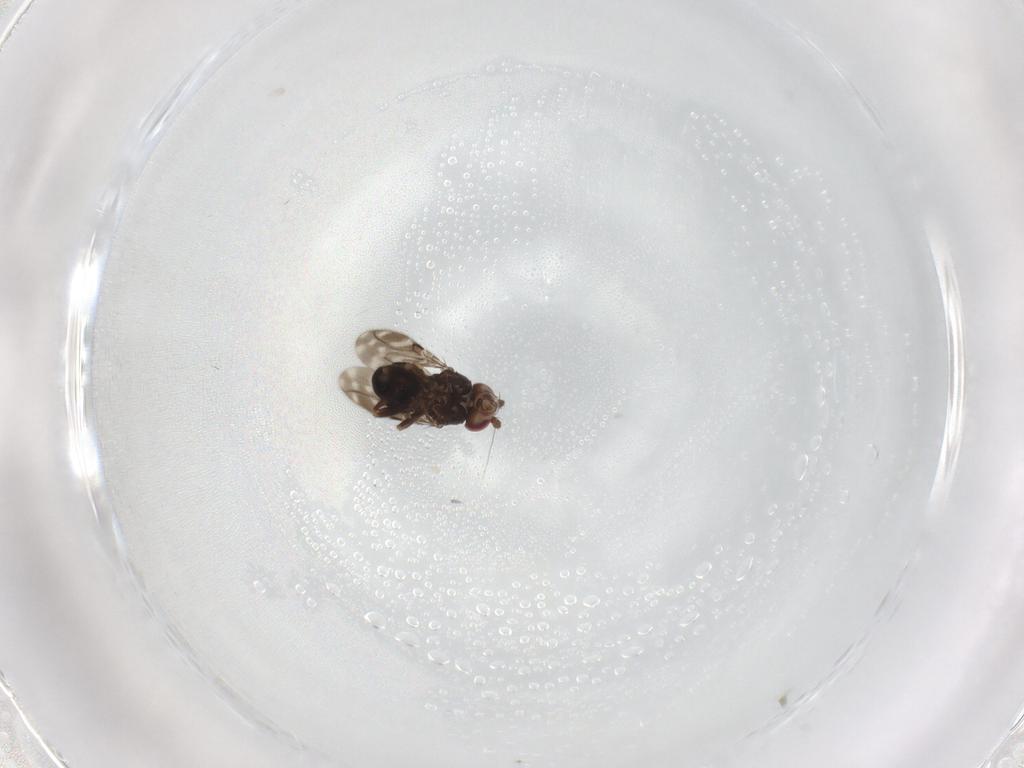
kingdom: Animalia
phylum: Arthropoda
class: Insecta
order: Diptera
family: Sphaeroceridae
